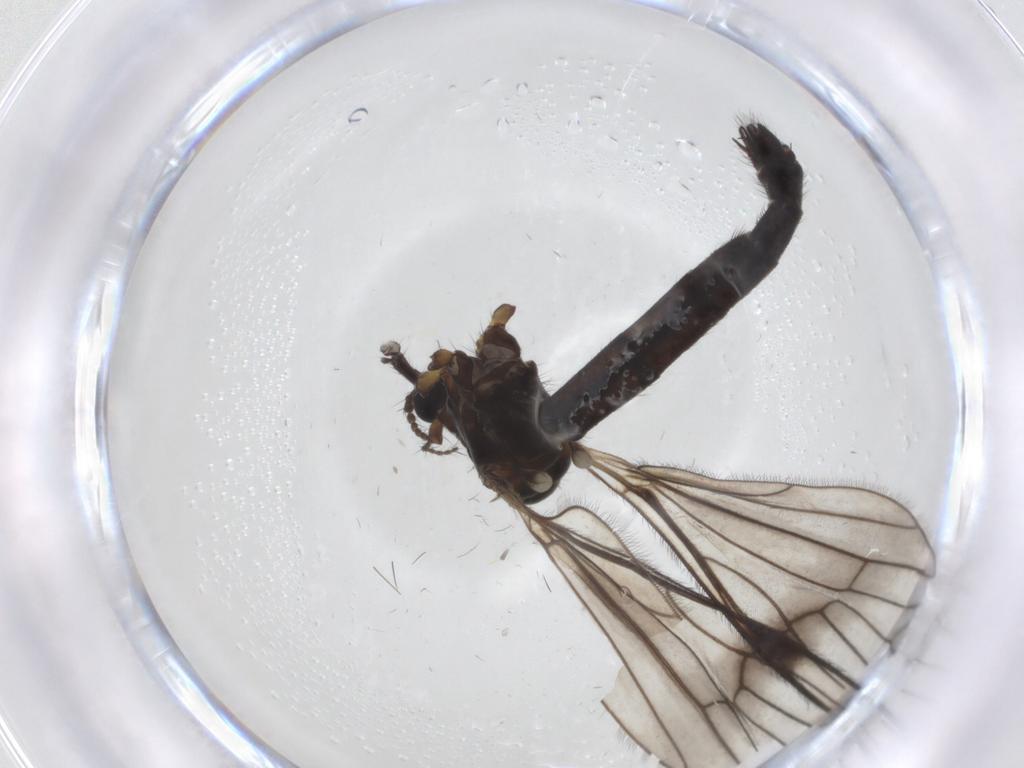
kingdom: Animalia
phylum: Arthropoda
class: Insecta
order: Diptera
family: Limoniidae
